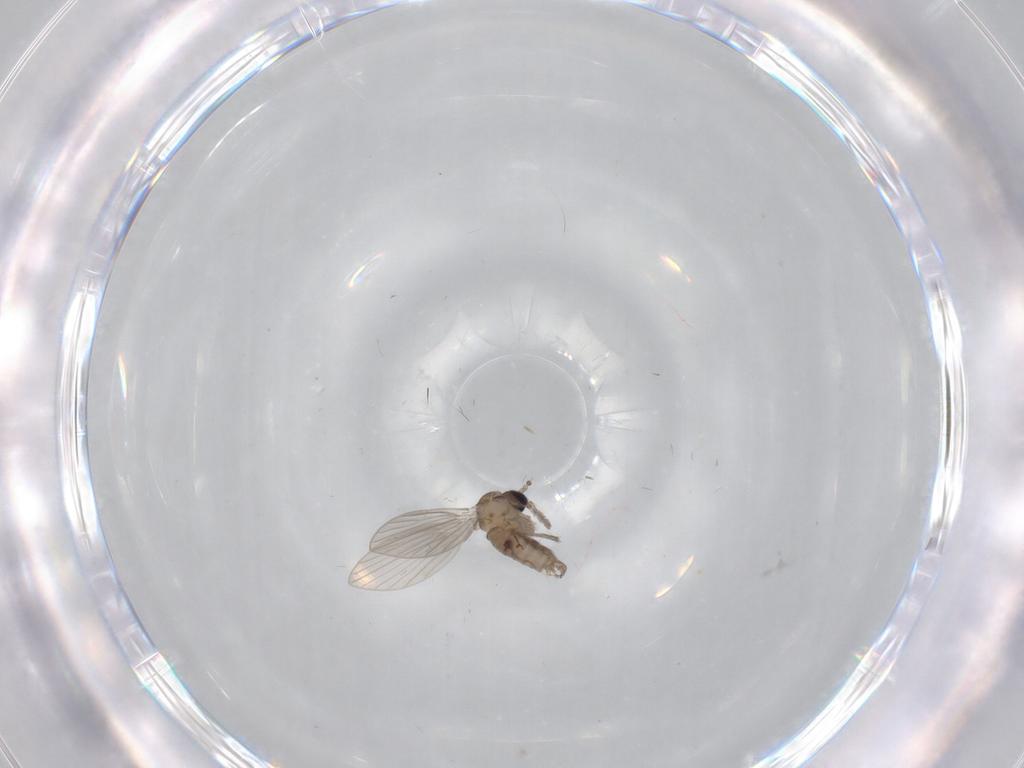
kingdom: Animalia
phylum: Arthropoda
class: Insecta
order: Diptera
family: Psychodidae
